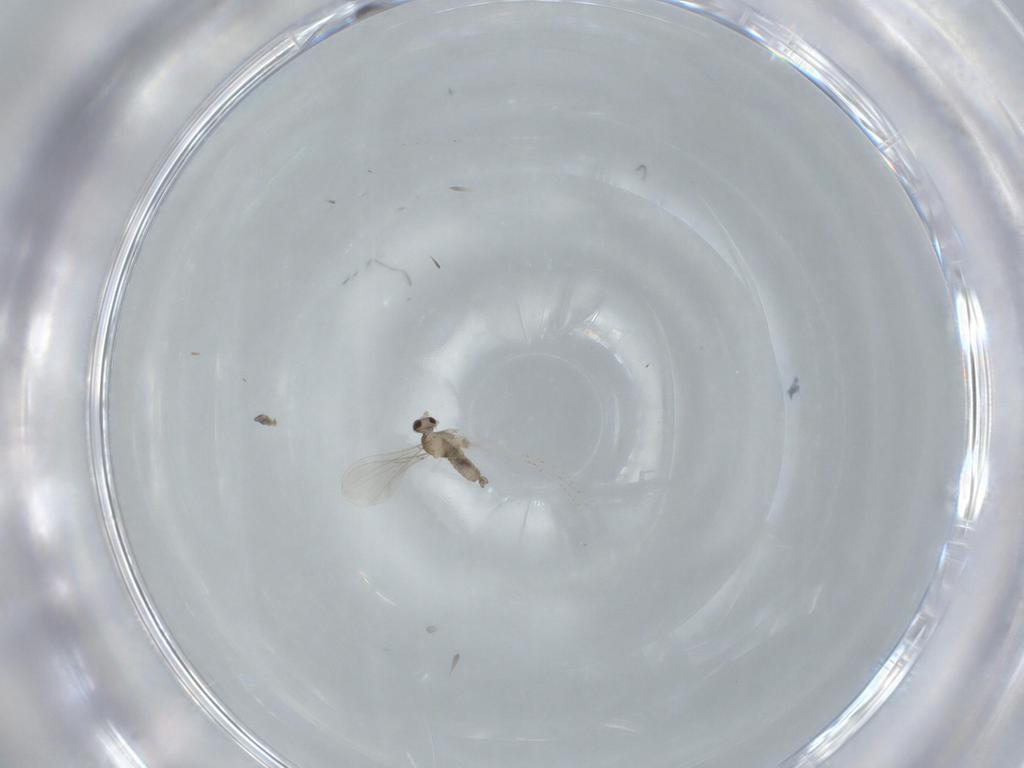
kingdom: Animalia
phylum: Arthropoda
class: Insecta
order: Diptera
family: Cecidomyiidae
